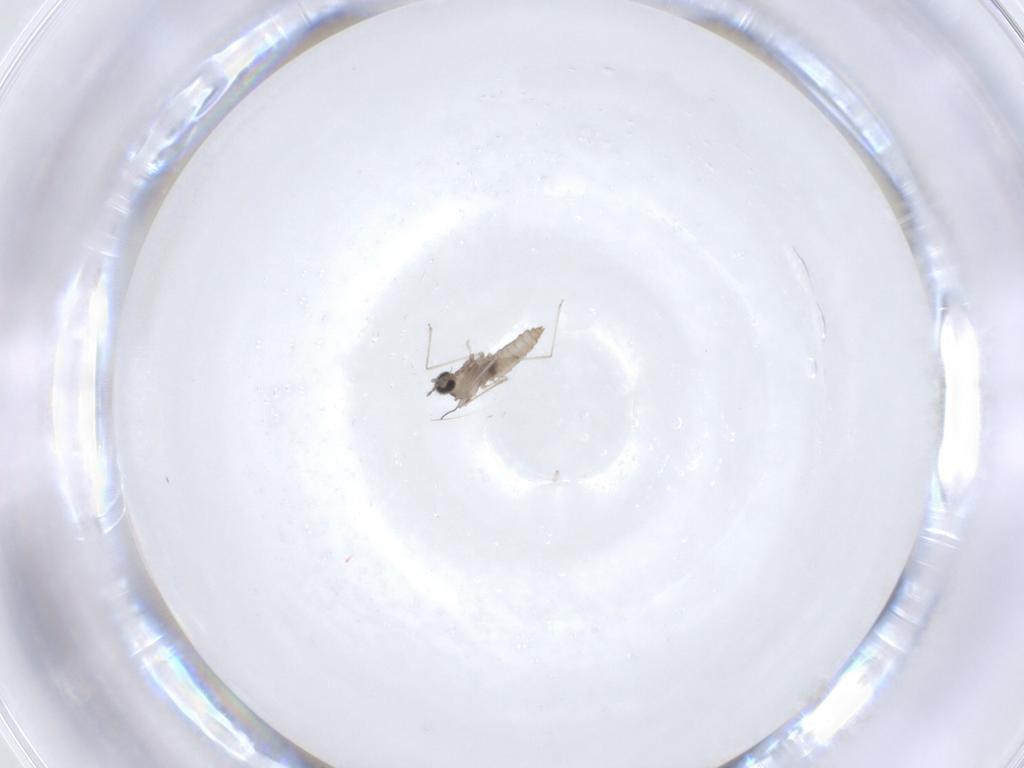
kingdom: Animalia
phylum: Arthropoda
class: Insecta
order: Diptera
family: Cecidomyiidae
